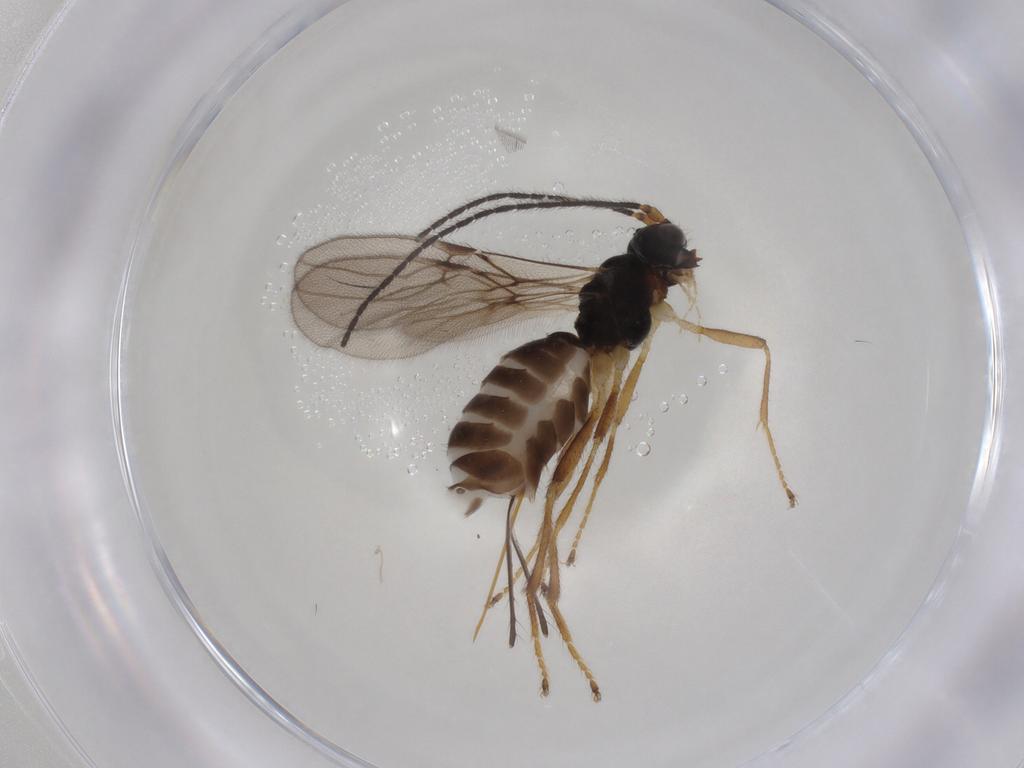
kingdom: Animalia
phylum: Arthropoda
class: Insecta
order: Hymenoptera
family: Braconidae
